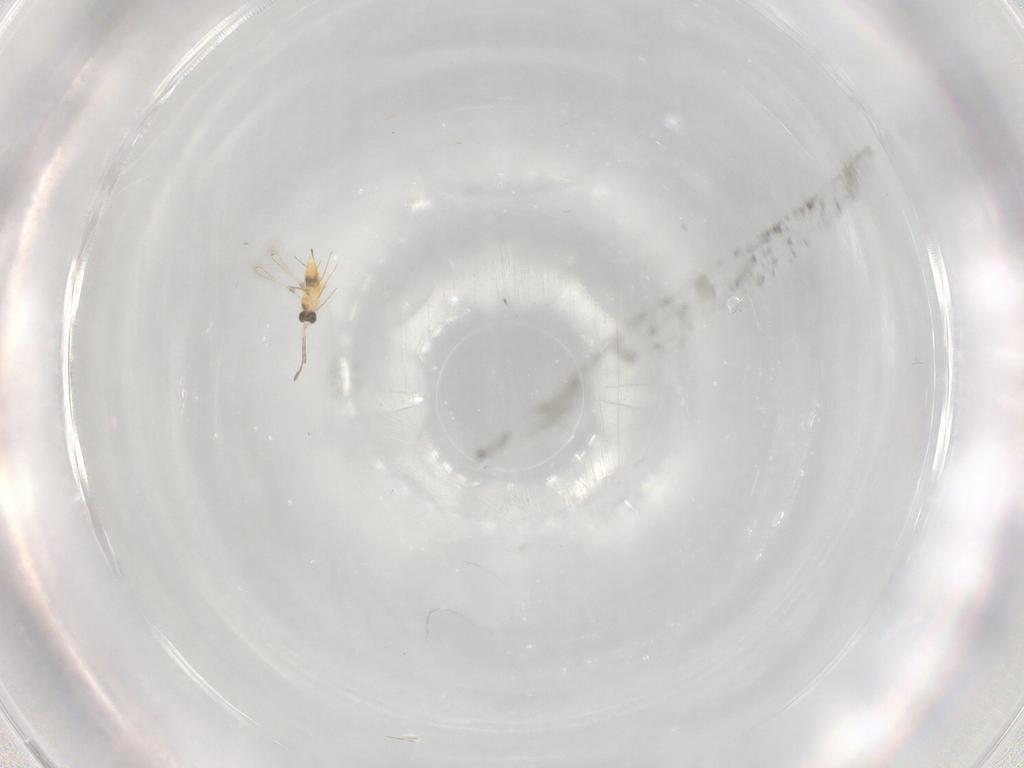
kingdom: Animalia
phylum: Arthropoda
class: Insecta
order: Hymenoptera
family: Mymaridae
